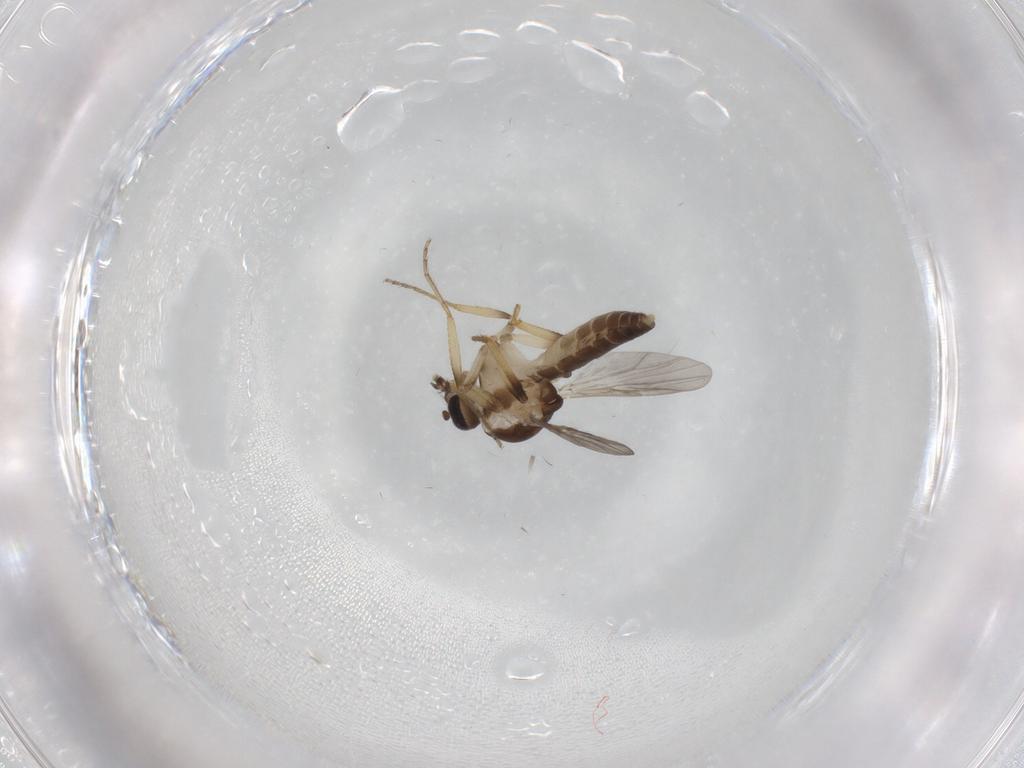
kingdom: Animalia
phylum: Arthropoda
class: Insecta
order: Diptera
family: Ceratopogonidae
